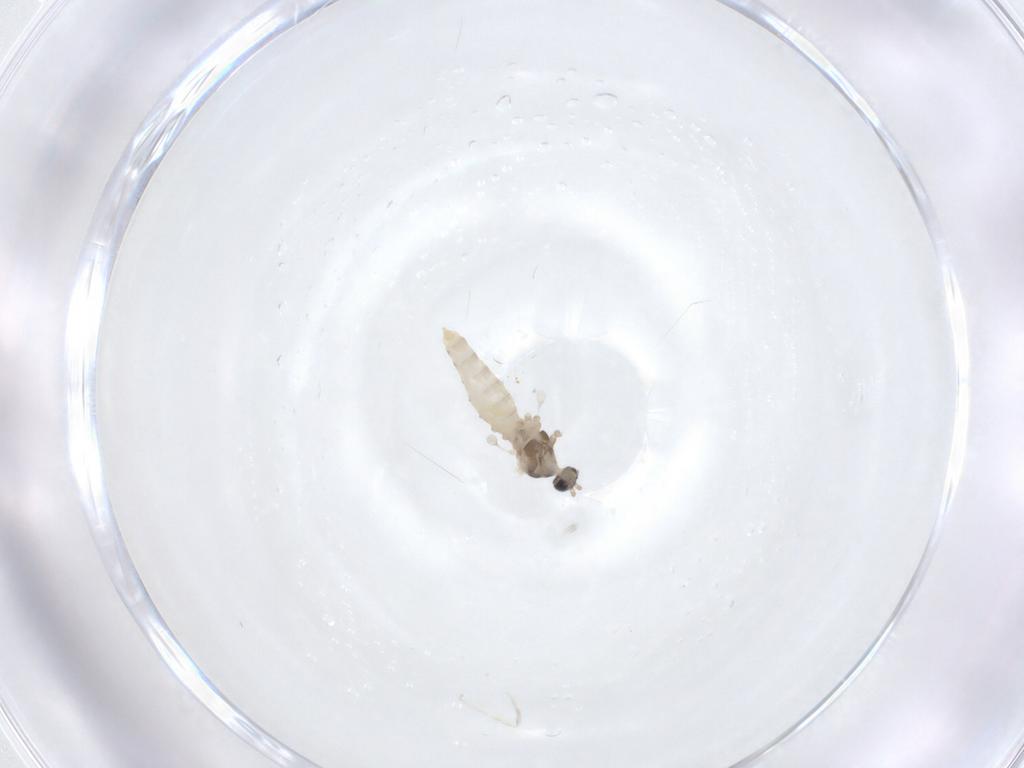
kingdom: Animalia
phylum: Arthropoda
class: Insecta
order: Diptera
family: Cecidomyiidae
